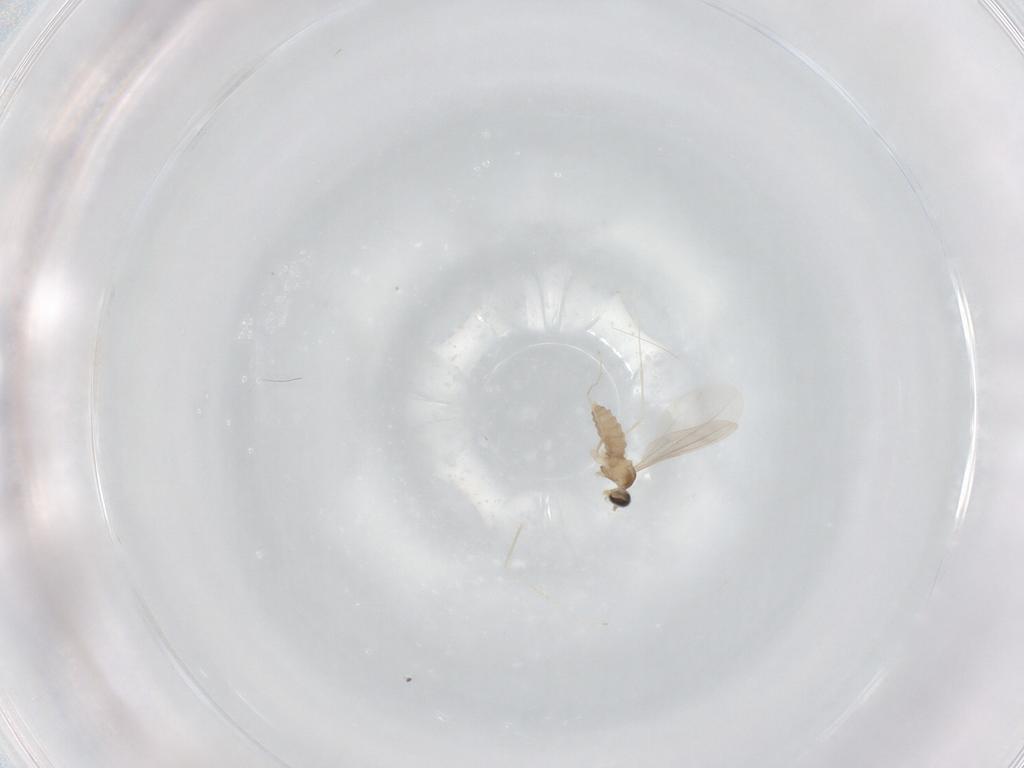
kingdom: Animalia
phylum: Arthropoda
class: Insecta
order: Diptera
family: Cecidomyiidae
